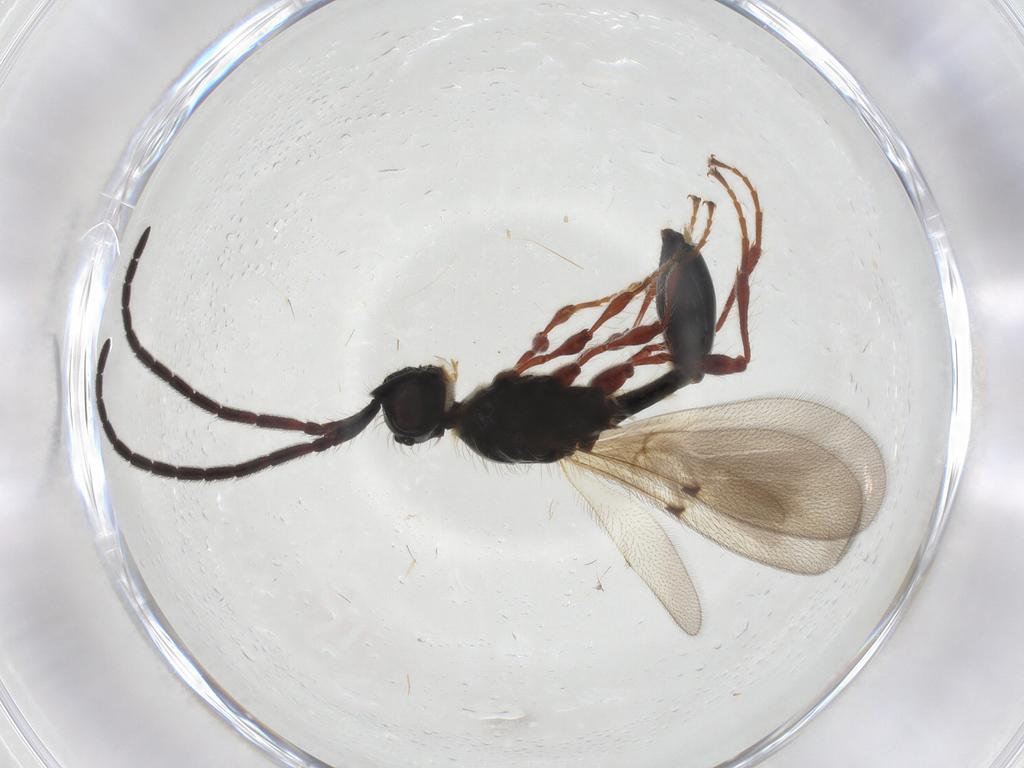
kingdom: Animalia
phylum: Arthropoda
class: Insecta
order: Hymenoptera
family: Diapriidae
